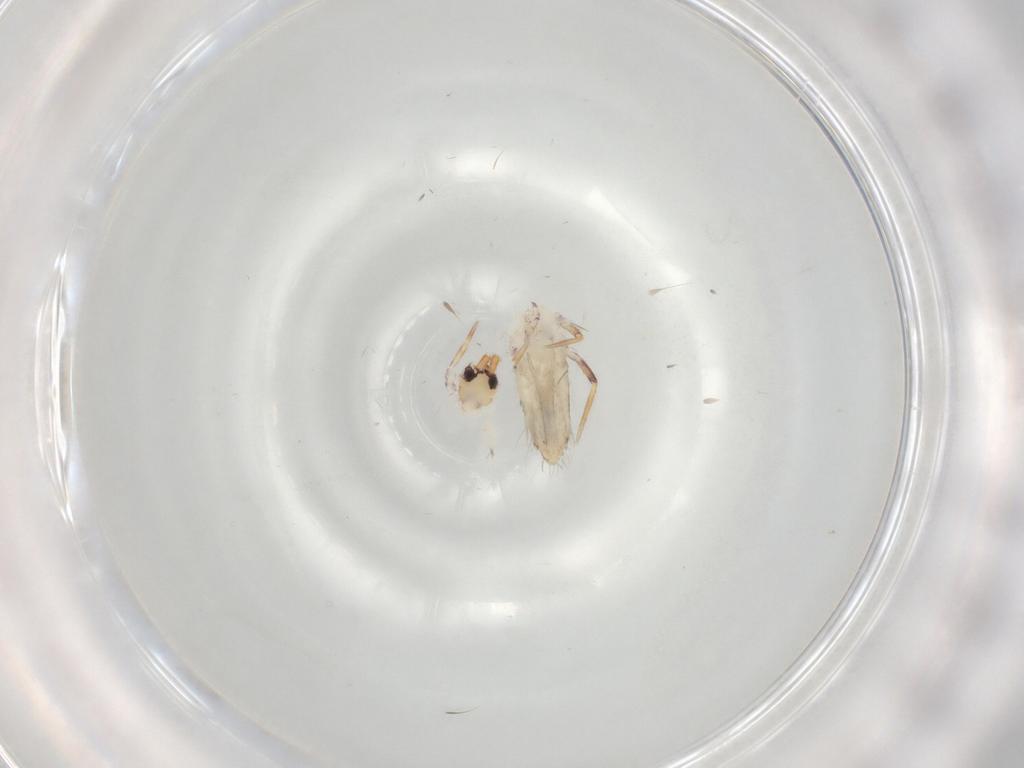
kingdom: Animalia
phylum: Arthropoda
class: Collembola
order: Entomobryomorpha
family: Entomobryidae
